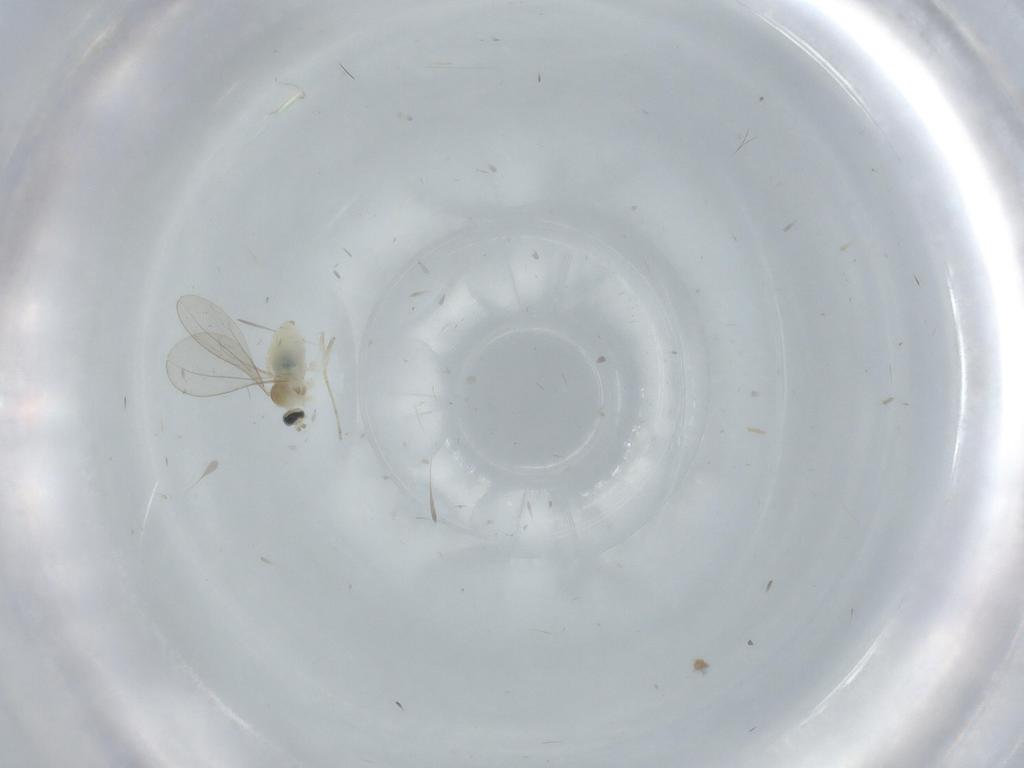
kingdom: Animalia
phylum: Arthropoda
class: Insecta
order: Diptera
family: Cecidomyiidae
